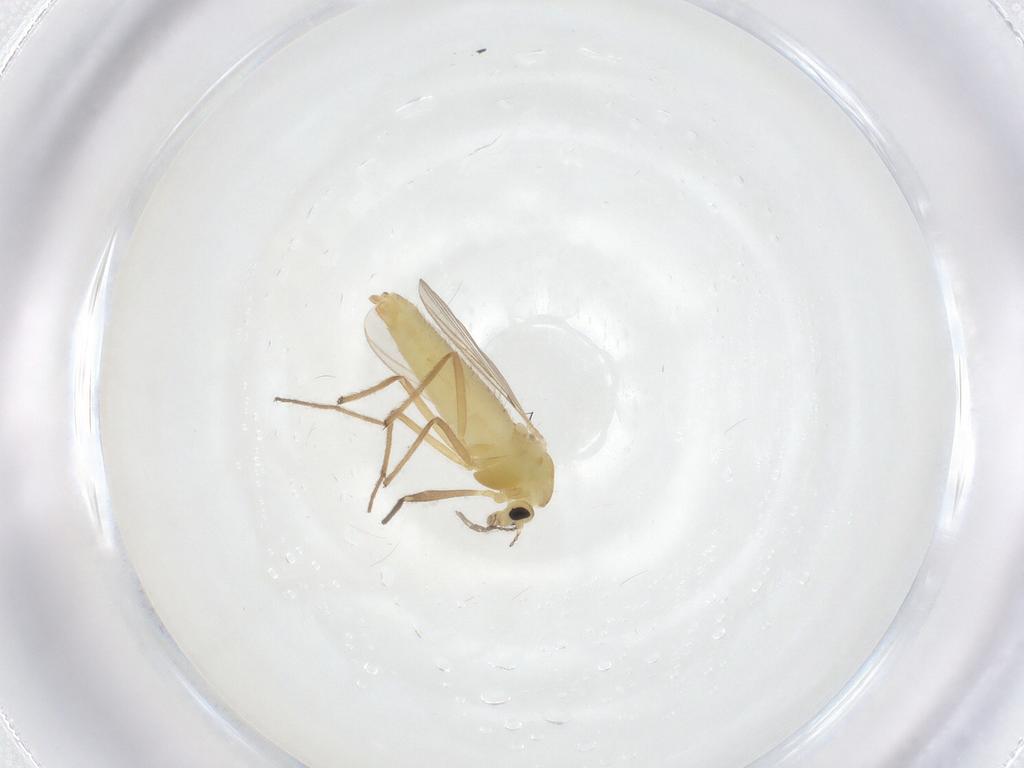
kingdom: Animalia
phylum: Arthropoda
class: Insecta
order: Diptera
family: Chironomidae
